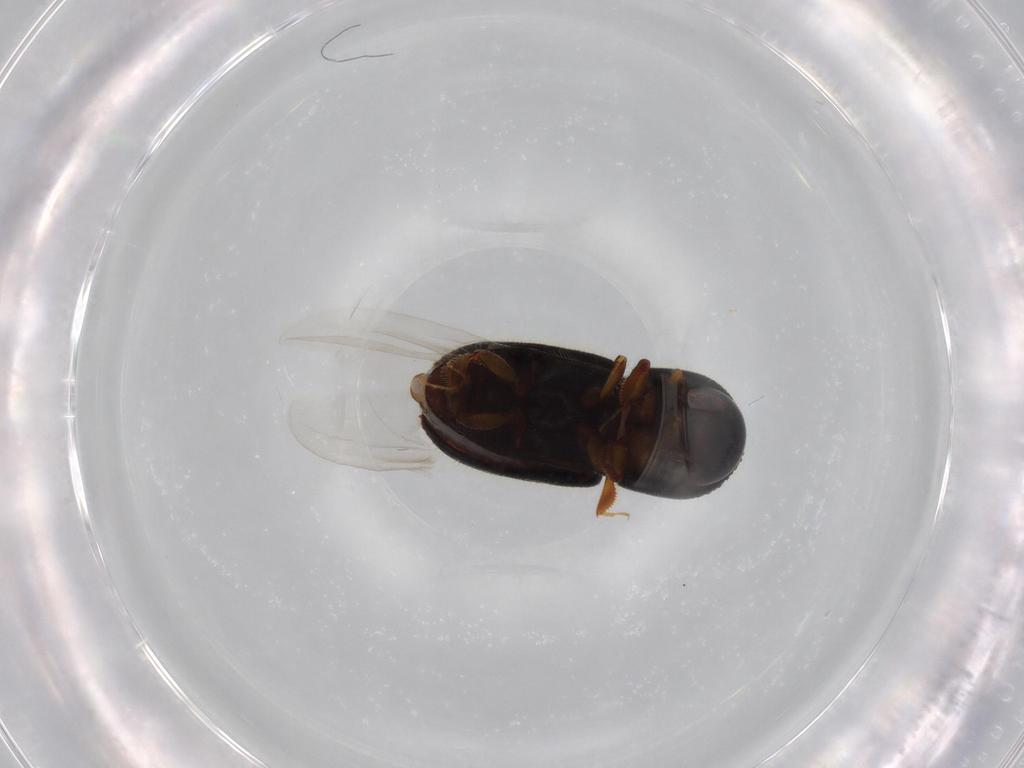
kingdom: Animalia
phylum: Arthropoda
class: Insecta
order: Coleoptera
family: Curculionidae
